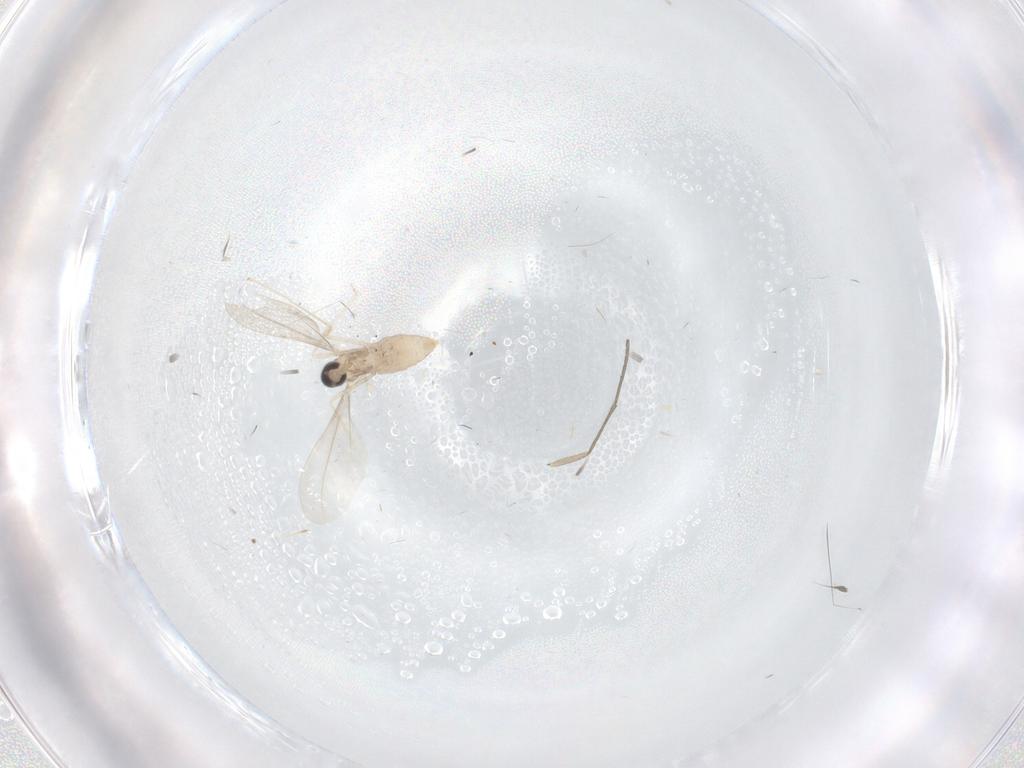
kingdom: Animalia
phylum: Arthropoda
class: Insecta
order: Diptera
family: Cecidomyiidae
